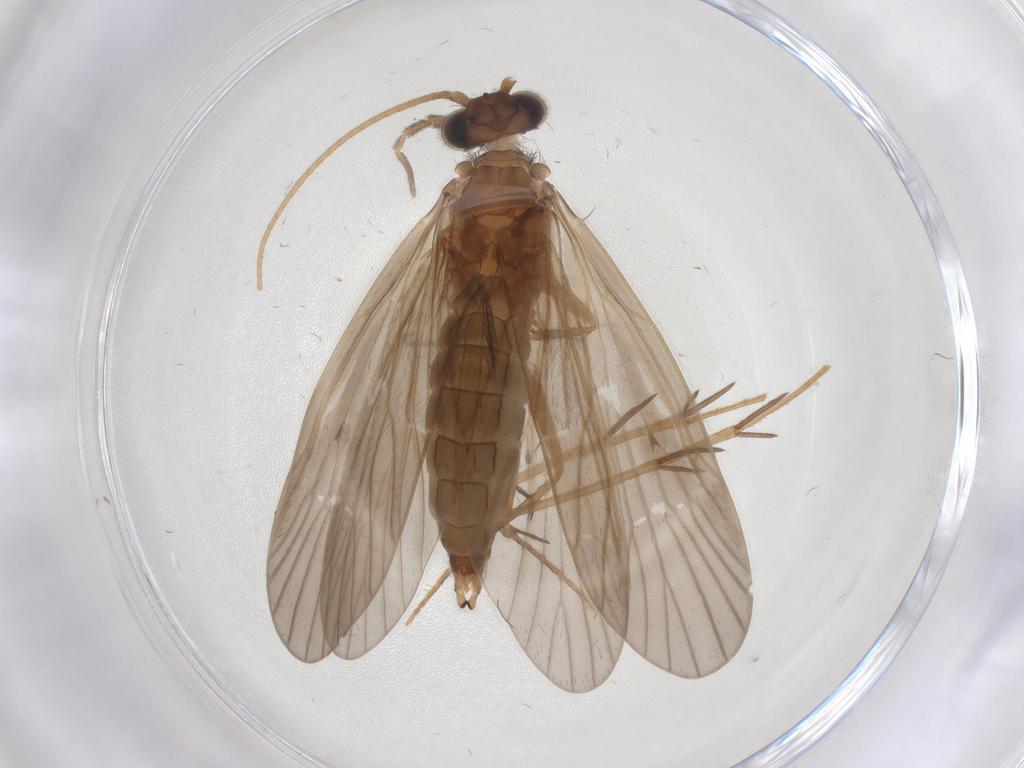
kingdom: Animalia
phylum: Arthropoda
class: Insecta
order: Trichoptera
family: Philopotamidae
